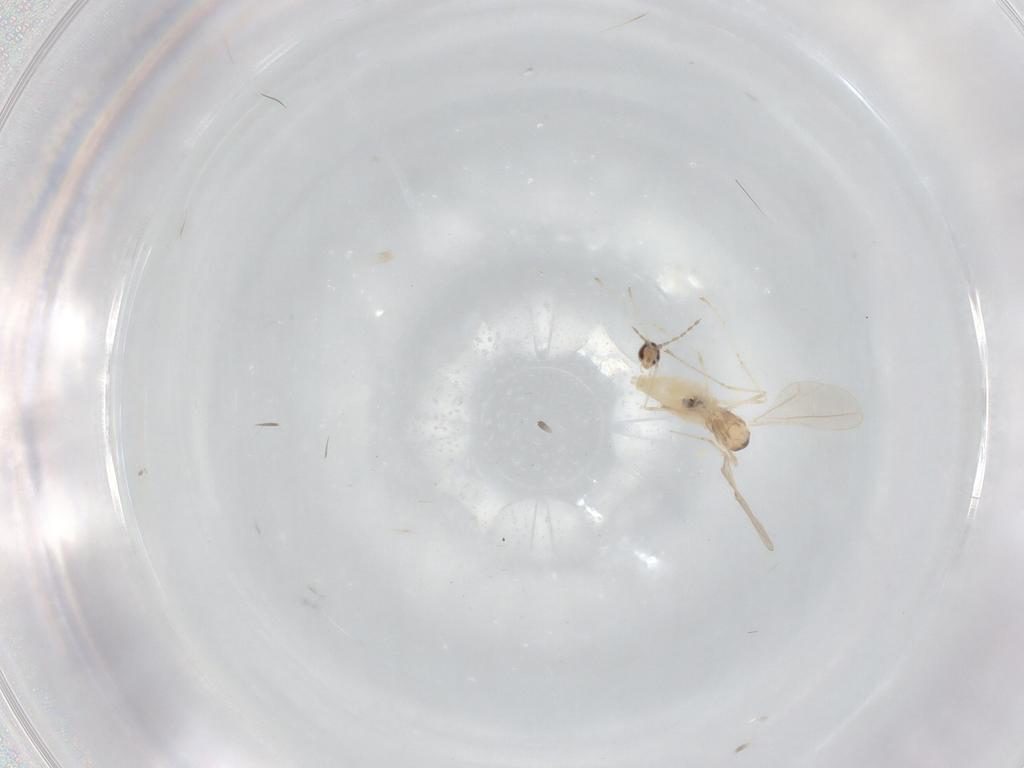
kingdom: Animalia
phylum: Arthropoda
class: Insecta
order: Diptera
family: Cecidomyiidae
